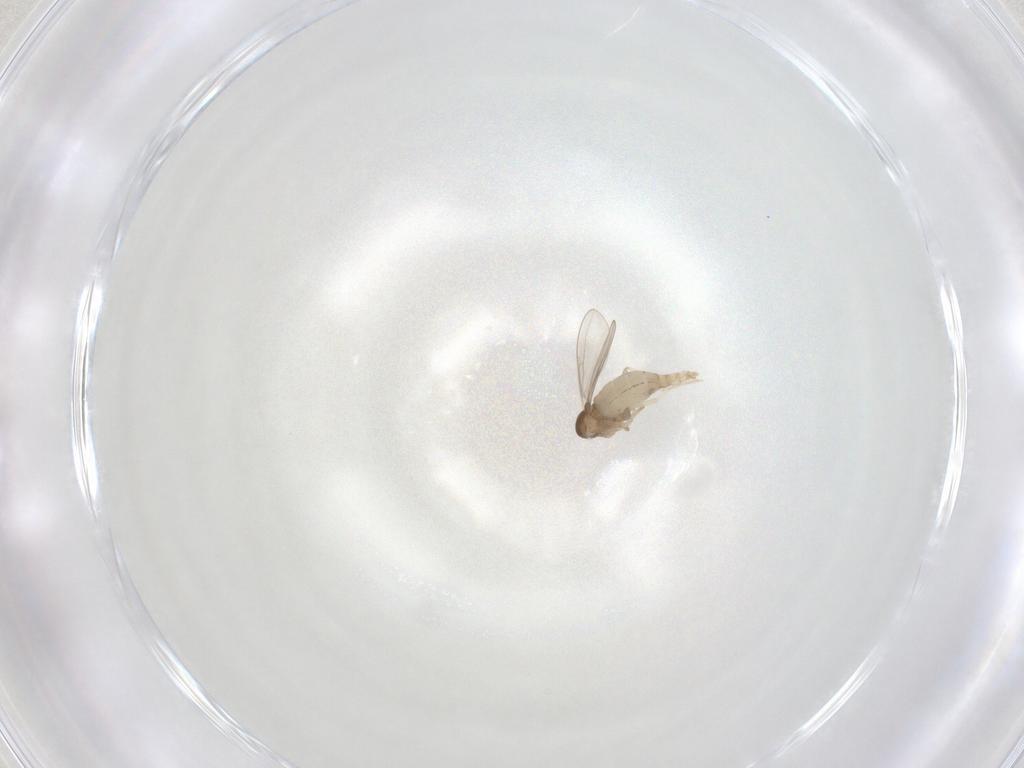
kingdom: Animalia
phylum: Arthropoda
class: Insecta
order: Diptera
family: Cecidomyiidae
